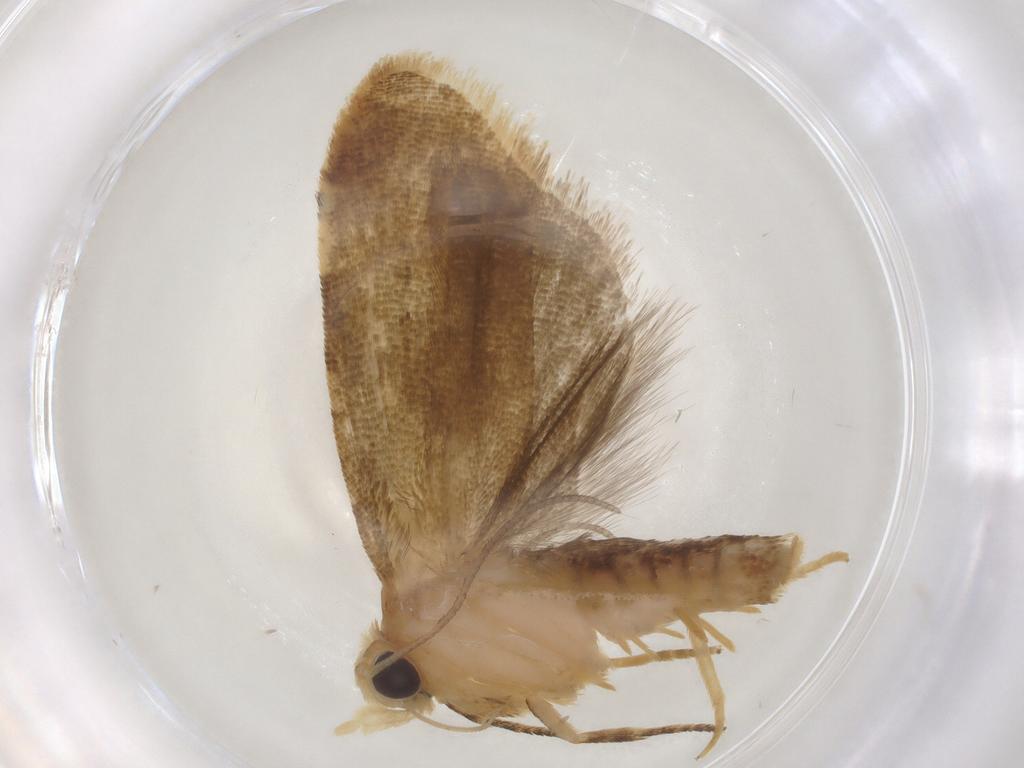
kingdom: Animalia
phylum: Arthropoda
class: Insecta
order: Lepidoptera
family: Tortricidae
